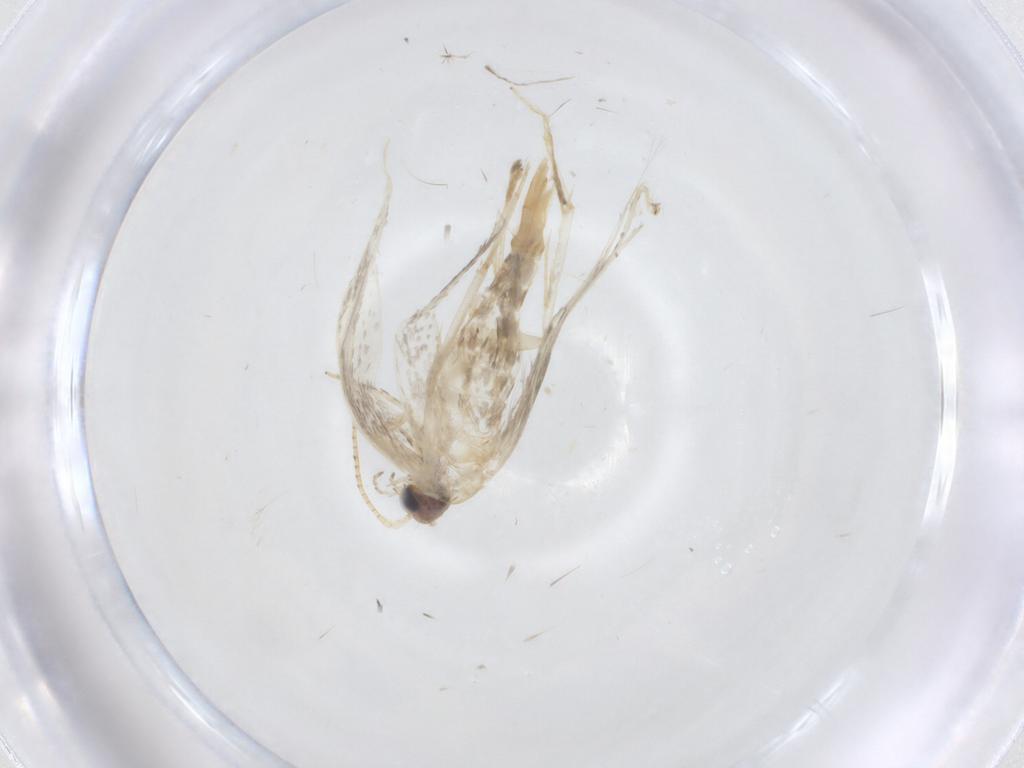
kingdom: Animalia
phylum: Arthropoda
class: Insecta
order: Lepidoptera
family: Tineidae
